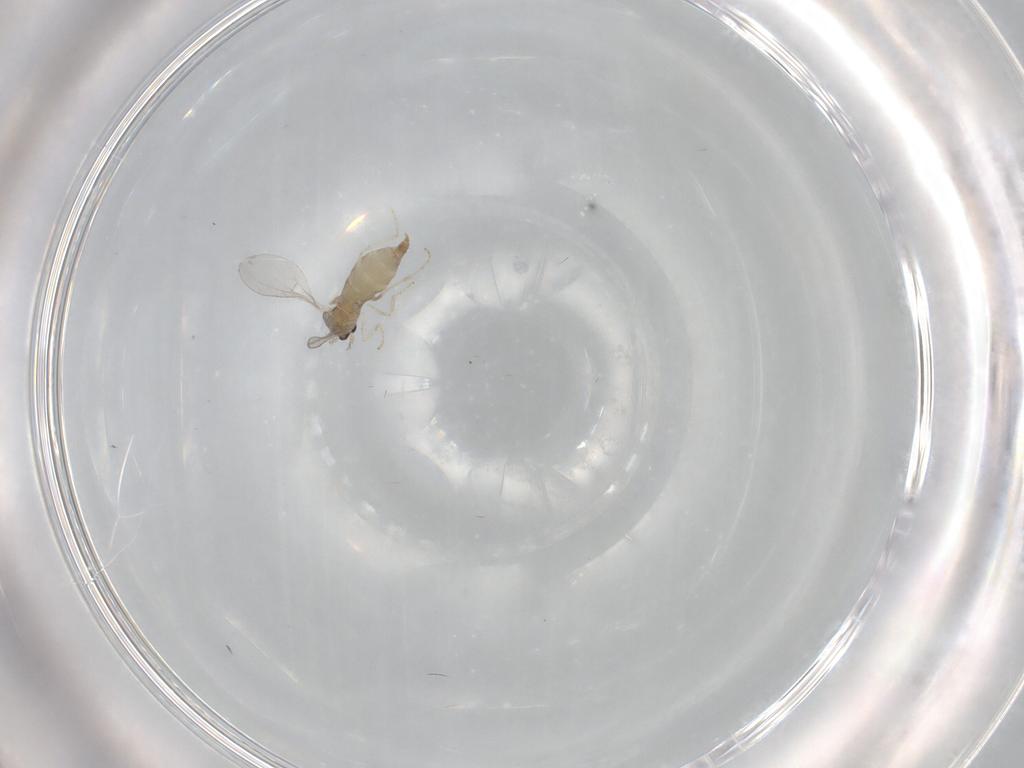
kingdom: Animalia
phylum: Arthropoda
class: Insecta
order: Diptera
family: Cecidomyiidae
